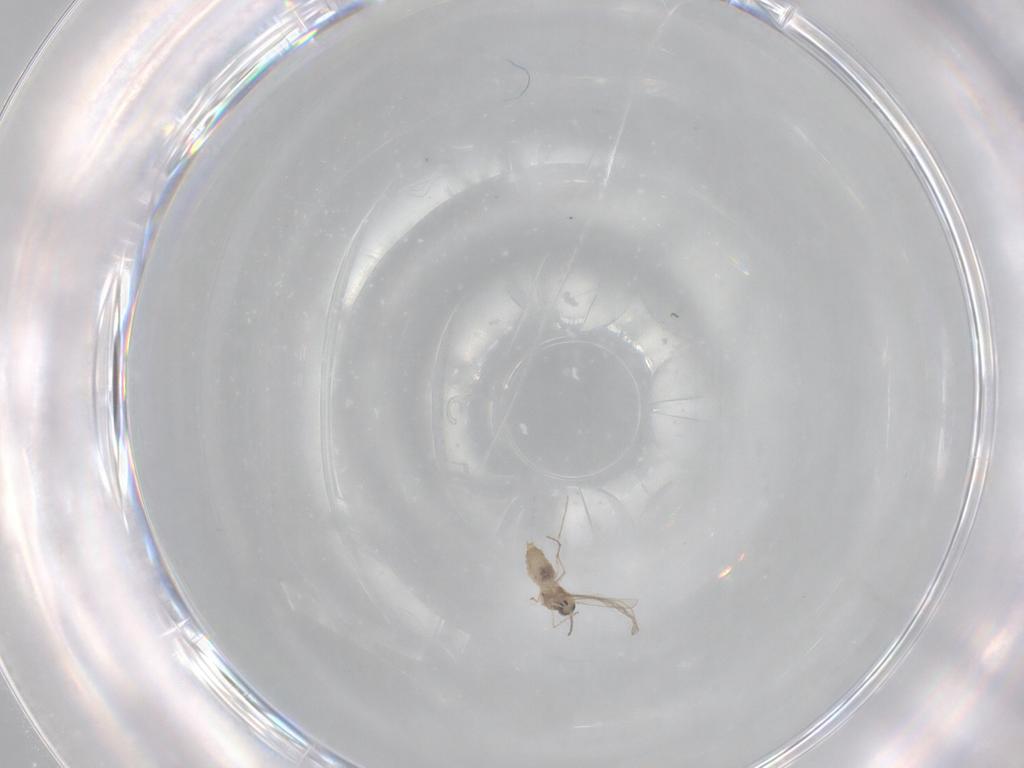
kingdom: Animalia
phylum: Arthropoda
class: Insecta
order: Diptera
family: Cecidomyiidae
